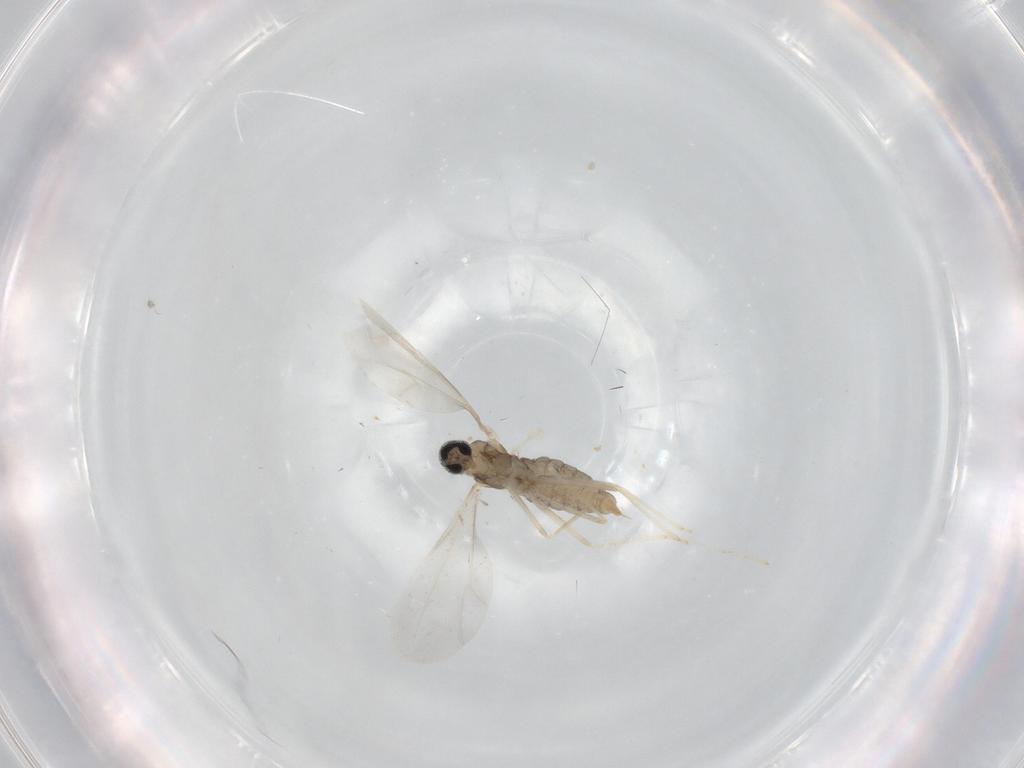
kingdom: Animalia
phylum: Arthropoda
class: Insecta
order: Diptera
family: Cecidomyiidae
